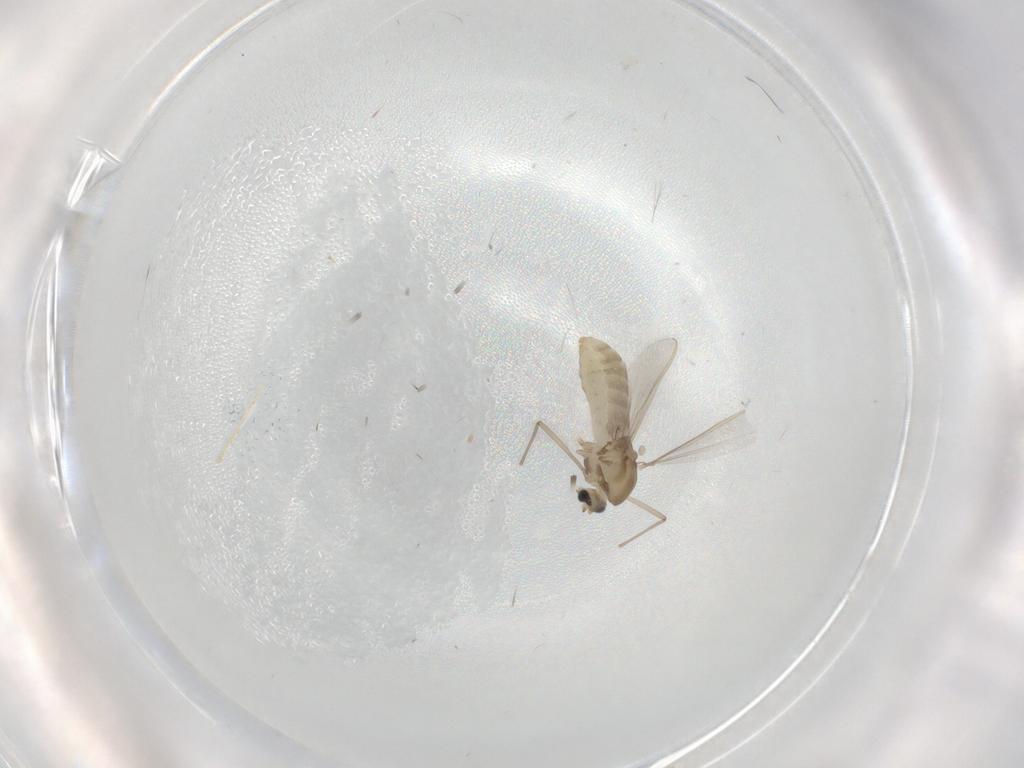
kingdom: Animalia
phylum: Arthropoda
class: Insecta
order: Diptera
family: Chironomidae
